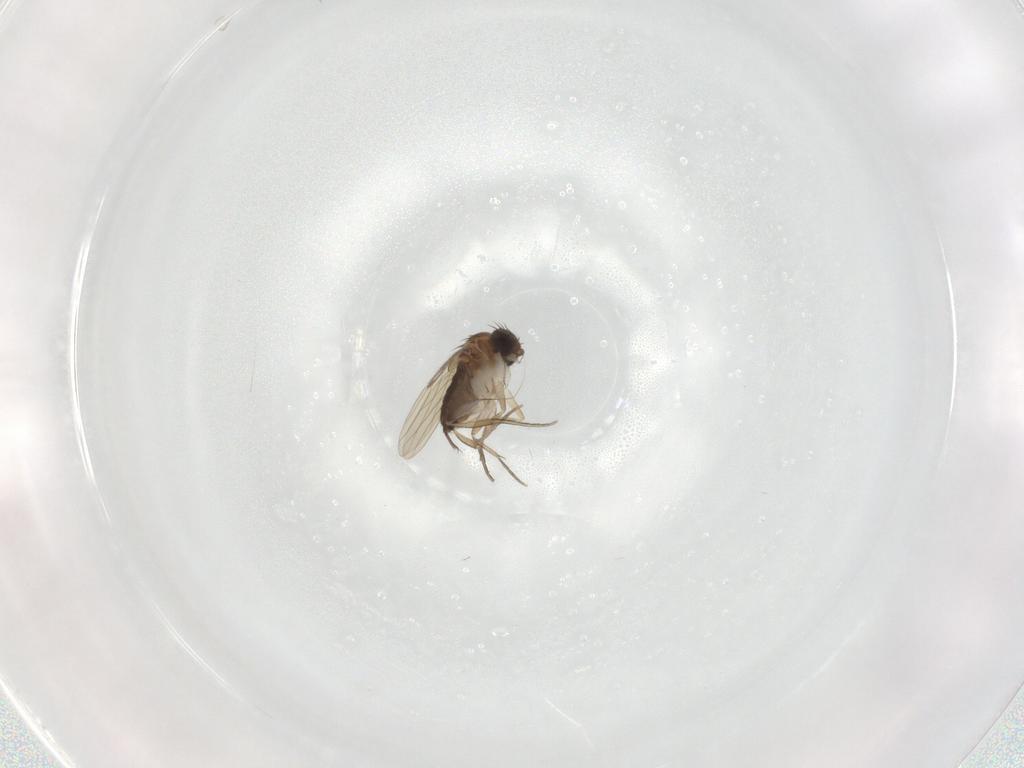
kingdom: Animalia
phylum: Arthropoda
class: Insecta
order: Diptera
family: Phoridae
